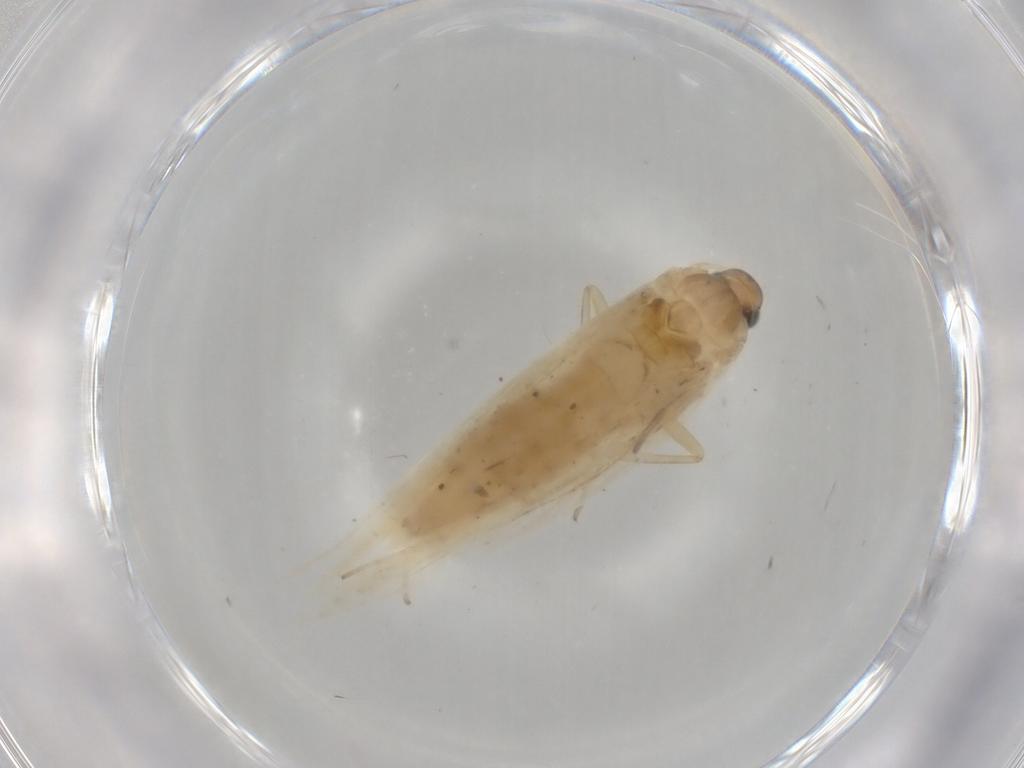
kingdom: Animalia
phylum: Arthropoda
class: Insecta
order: Lepidoptera
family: Gelechiidae
